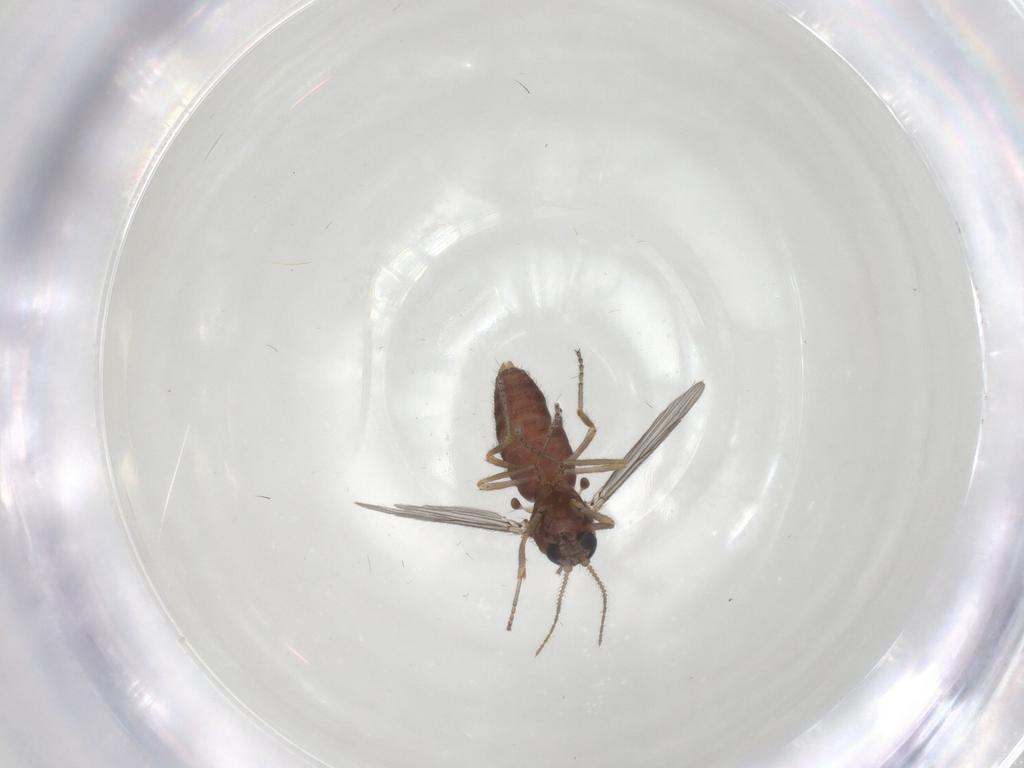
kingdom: Animalia
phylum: Arthropoda
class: Insecta
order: Diptera
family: Ceratopogonidae
